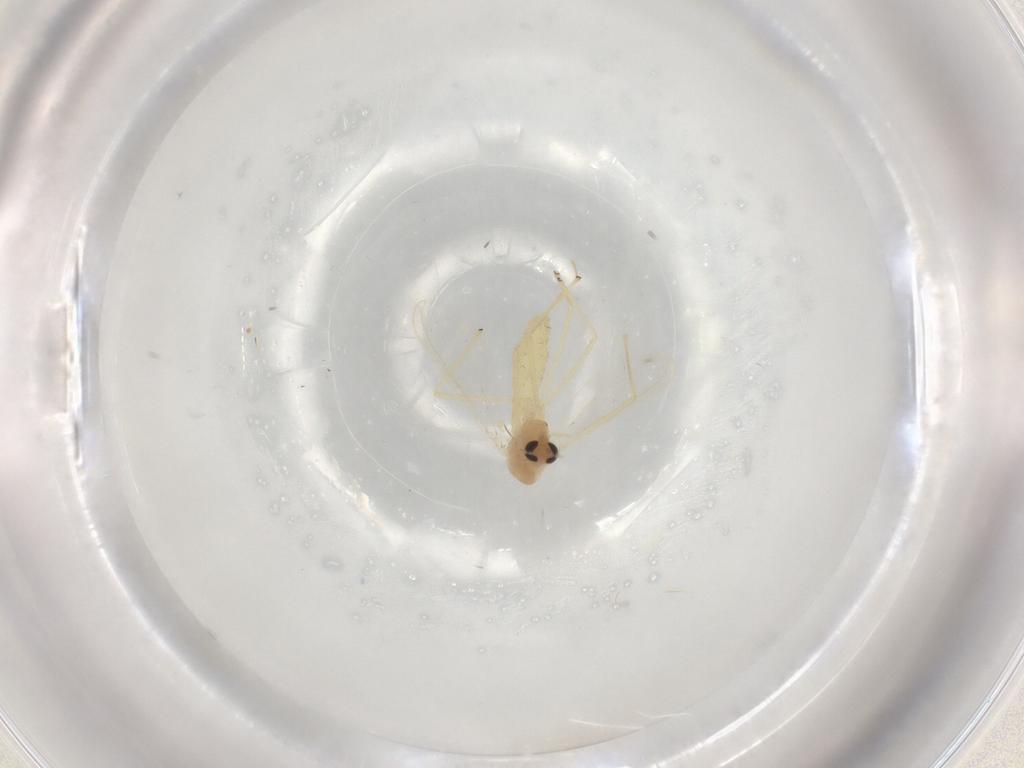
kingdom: Animalia
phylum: Arthropoda
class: Insecta
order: Diptera
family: Chironomidae
